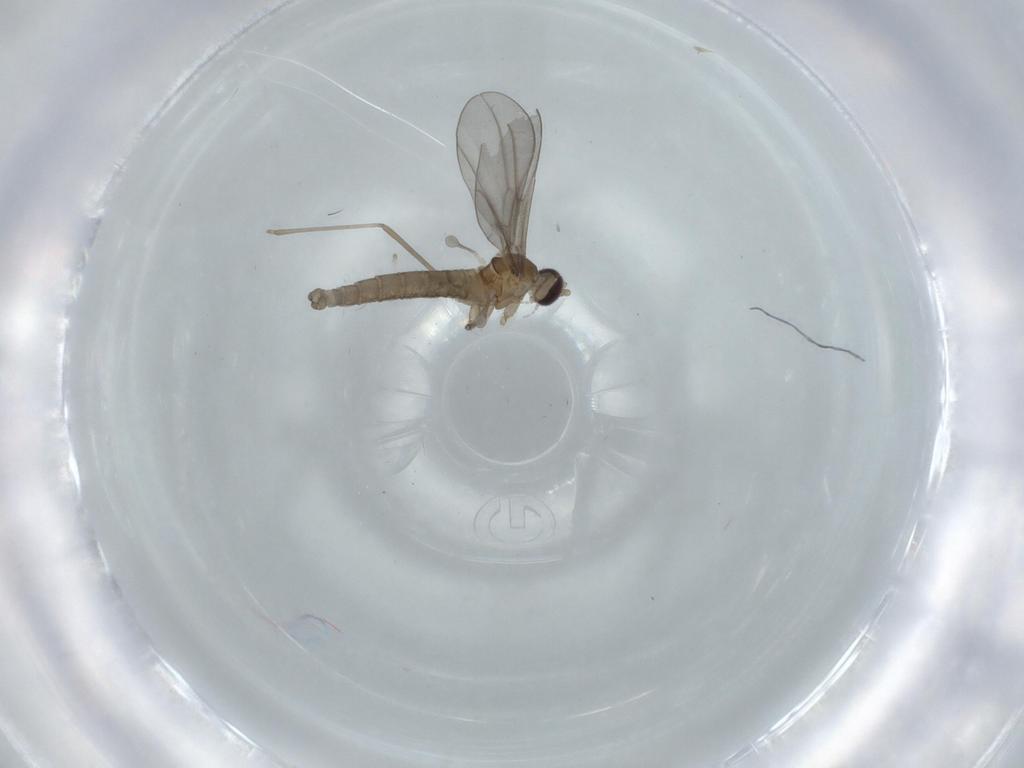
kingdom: Animalia
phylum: Arthropoda
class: Insecta
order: Diptera
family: Cecidomyiidae
